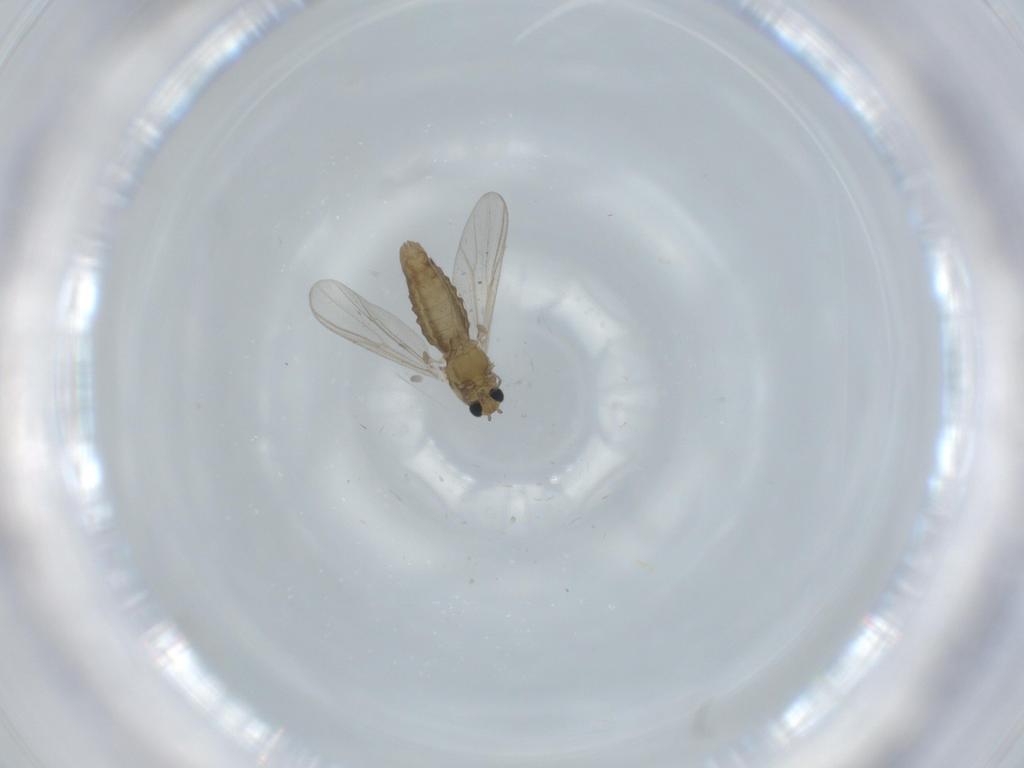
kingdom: Animalia
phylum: Arthropoda
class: Insecta
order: Diptera
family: Chironomidae
